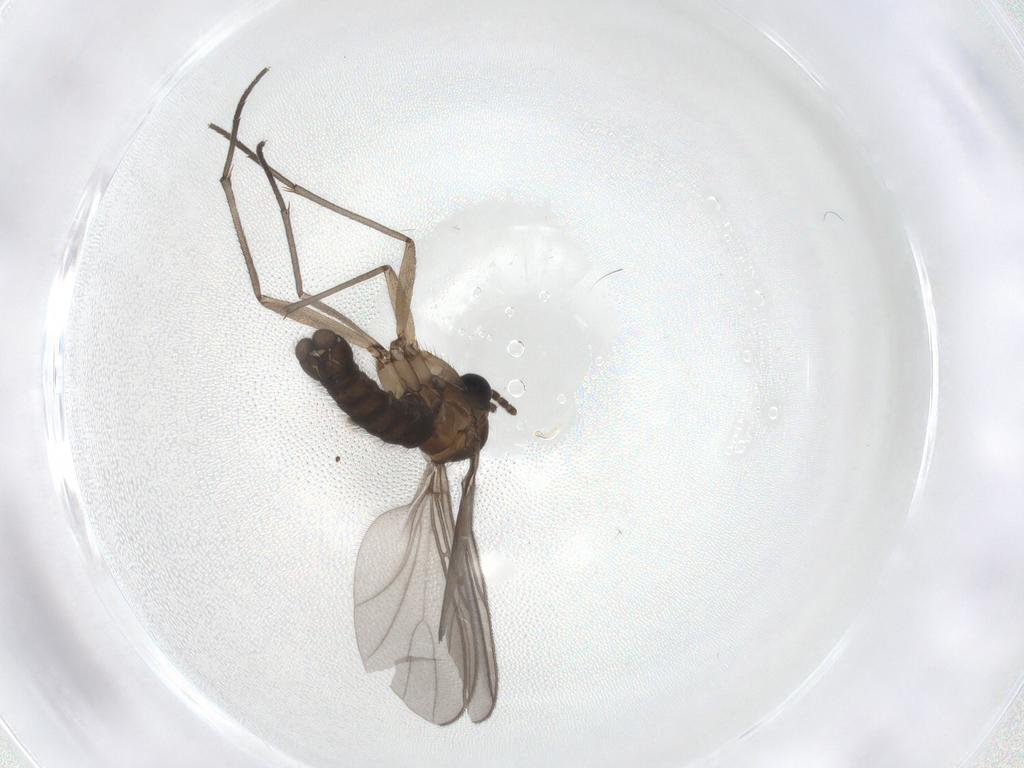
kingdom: Animalia
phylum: Arthropoda
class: Insecta
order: Diptera
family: Sciaridae
